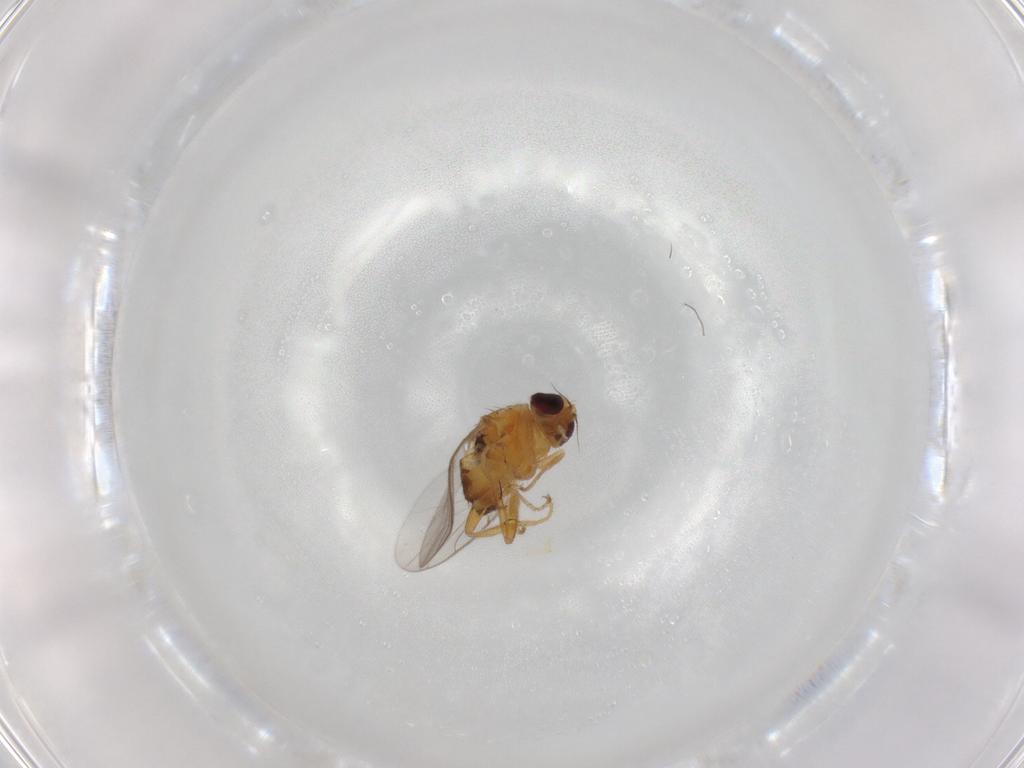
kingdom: Animalia
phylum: Arthropoda
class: Insecta
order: Diptera
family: Chloropidae
